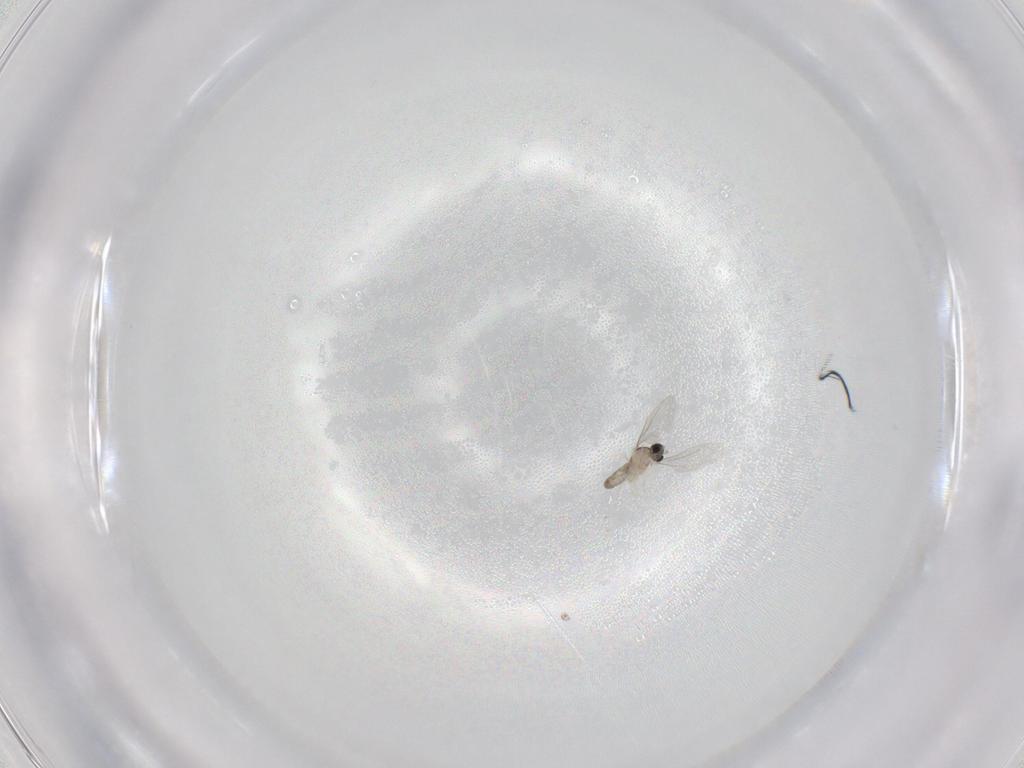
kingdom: Animalia
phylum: Arthropoda
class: Insecta
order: Diptera
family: Cecidomyiidae
